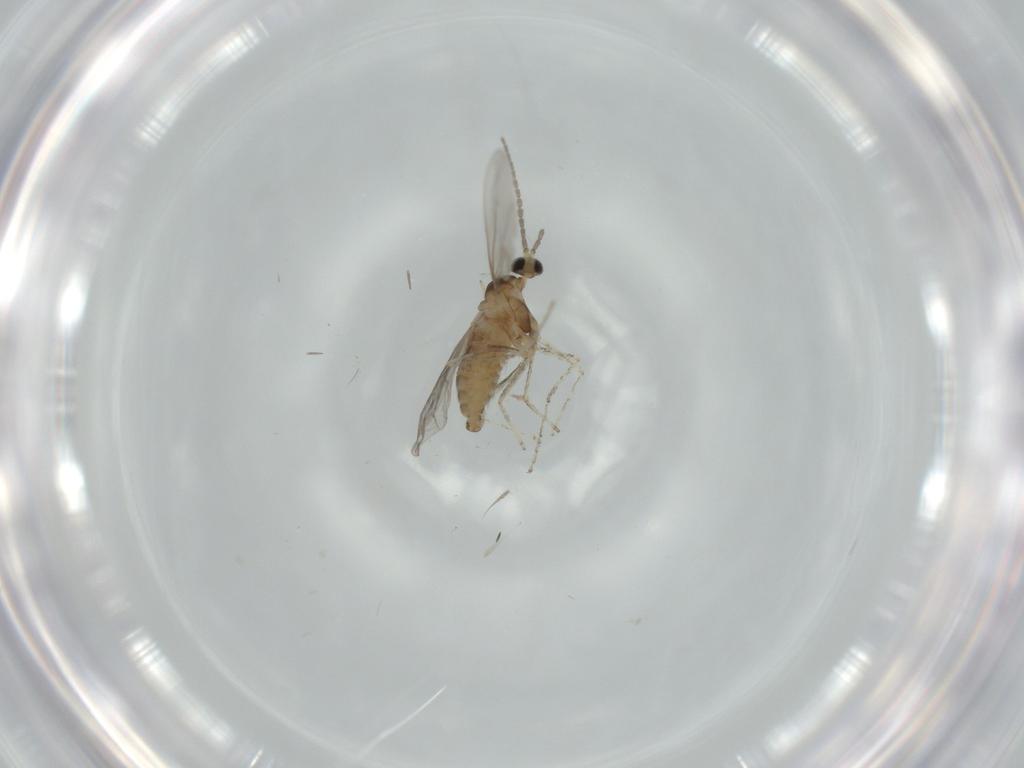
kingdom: Animalia
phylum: Arthropoda
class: Insecta
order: Diptera
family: Cecidomyiidae
